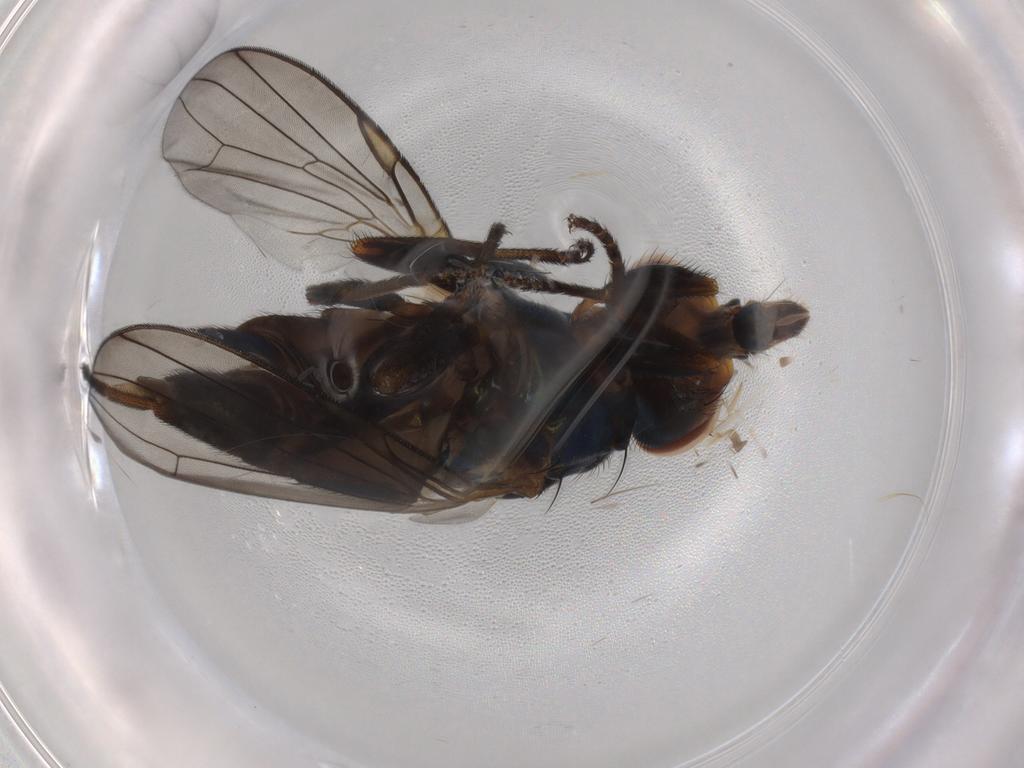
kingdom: Animalia
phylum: Arthropoda
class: Insecta
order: Diptera
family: Ulidiidae
